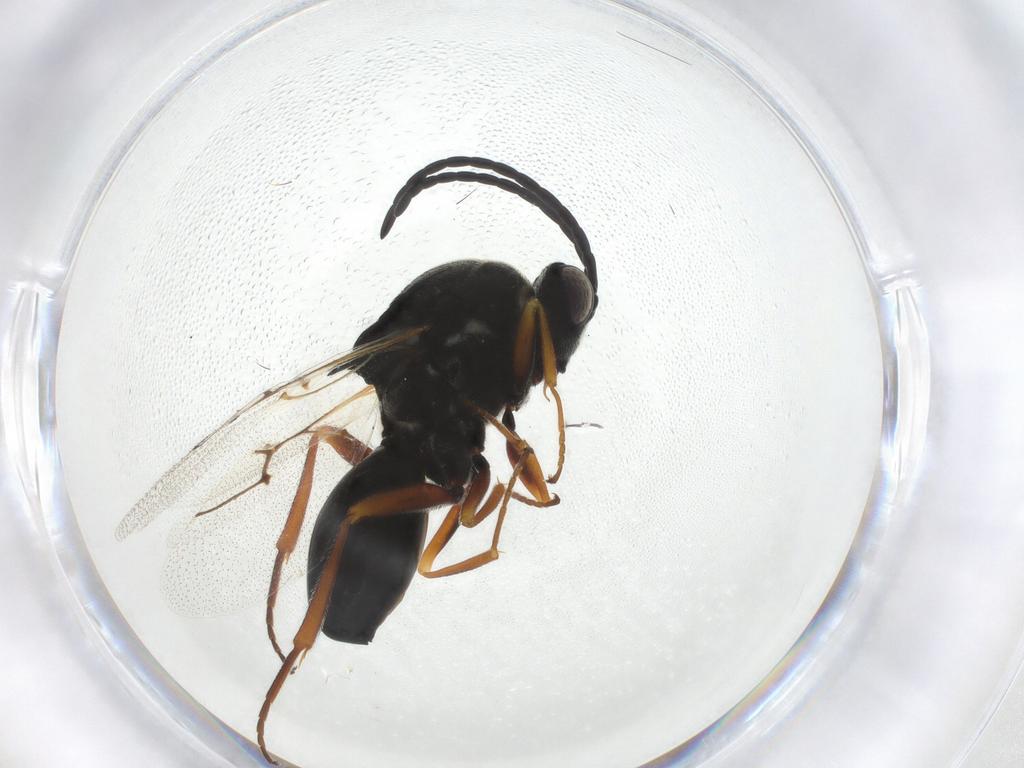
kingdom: Animalia
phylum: Arthropoda
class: Insecta
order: Hymenoptera
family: Figitidae
